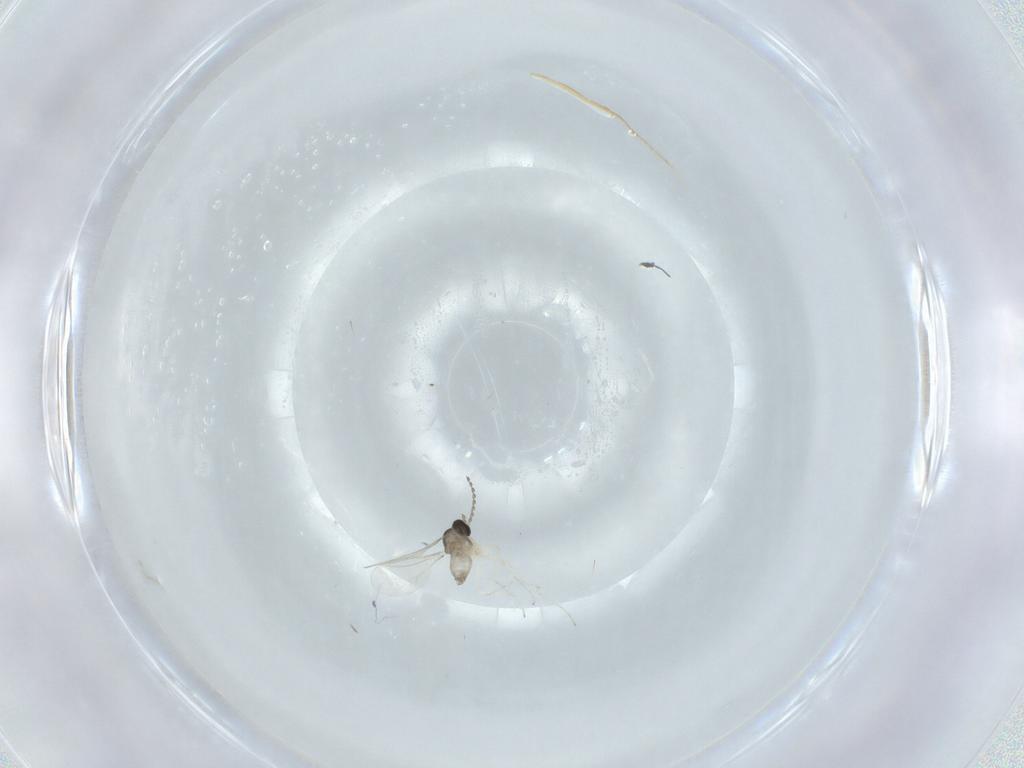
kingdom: Animalia
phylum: Arthropoda
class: Insecta
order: Diptera
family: Cecidomyiidae
